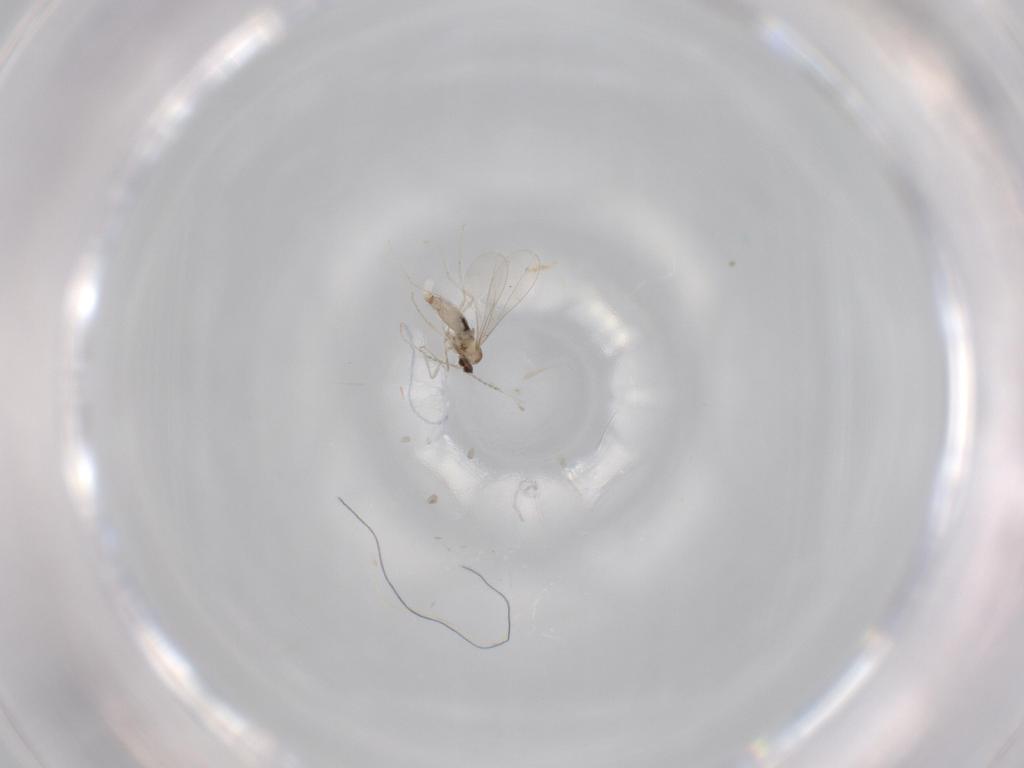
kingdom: Animalia
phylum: Arthropoda
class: Insecta
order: Diptera
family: Cecidomyiidae
